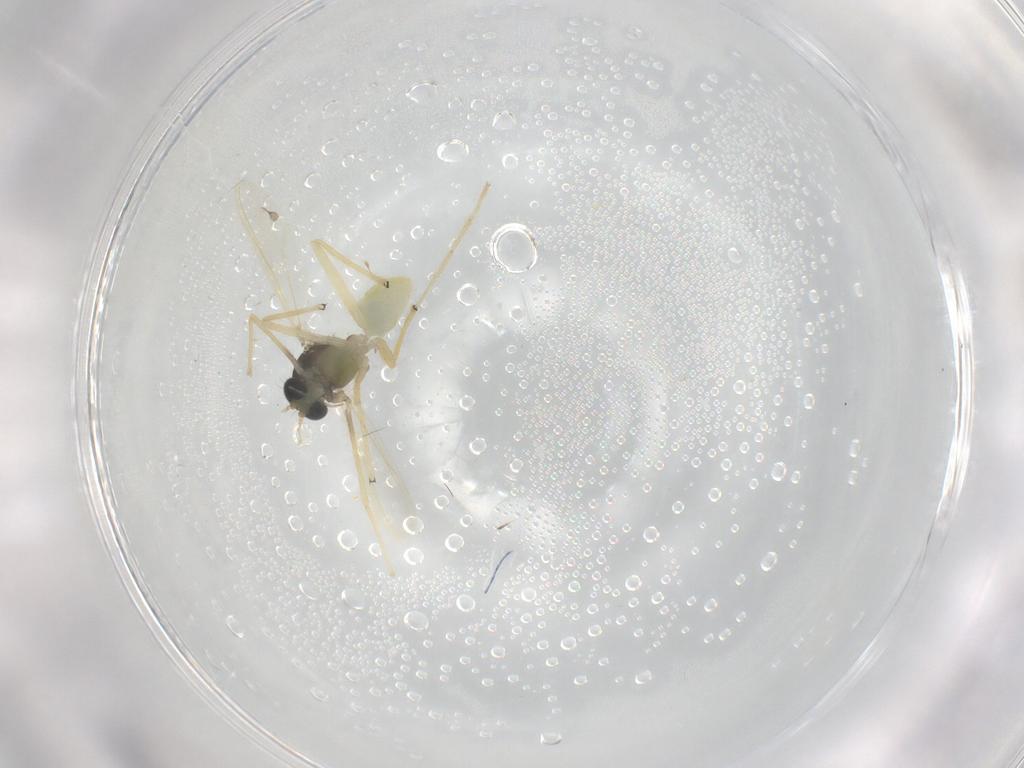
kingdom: Animalia
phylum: Arthropoda
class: Insecta
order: Diptera
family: Chironomidae
